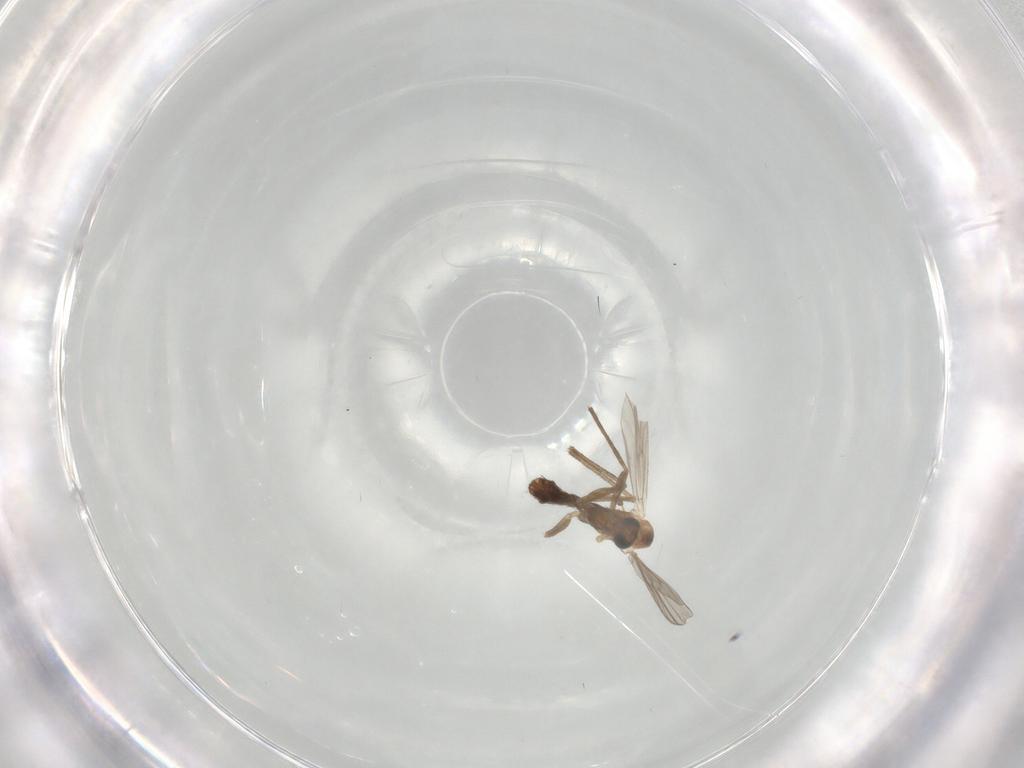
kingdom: Animalia
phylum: Arthropoda
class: Insecta
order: Diptera
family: Chironomidae
